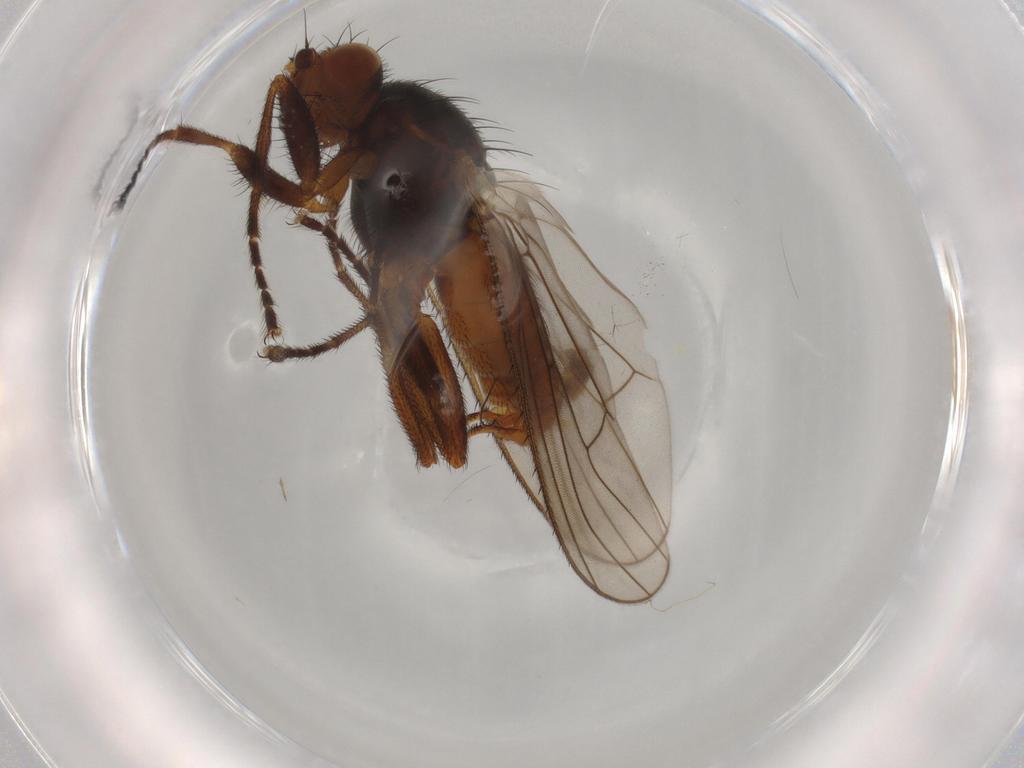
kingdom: Animalia
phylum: Arthropoda
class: Insecta
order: Diptera
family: Heleomyzidae
